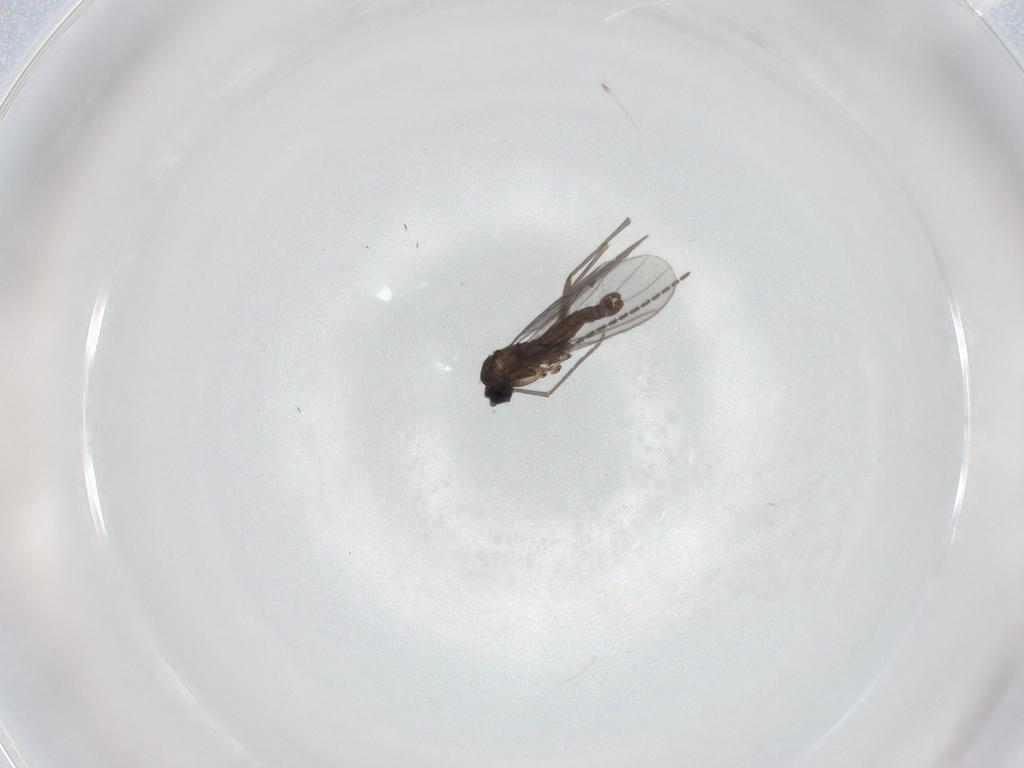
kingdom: Animalia
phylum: Arthropoda
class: Insecta
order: Diptera
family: Sciaridae
